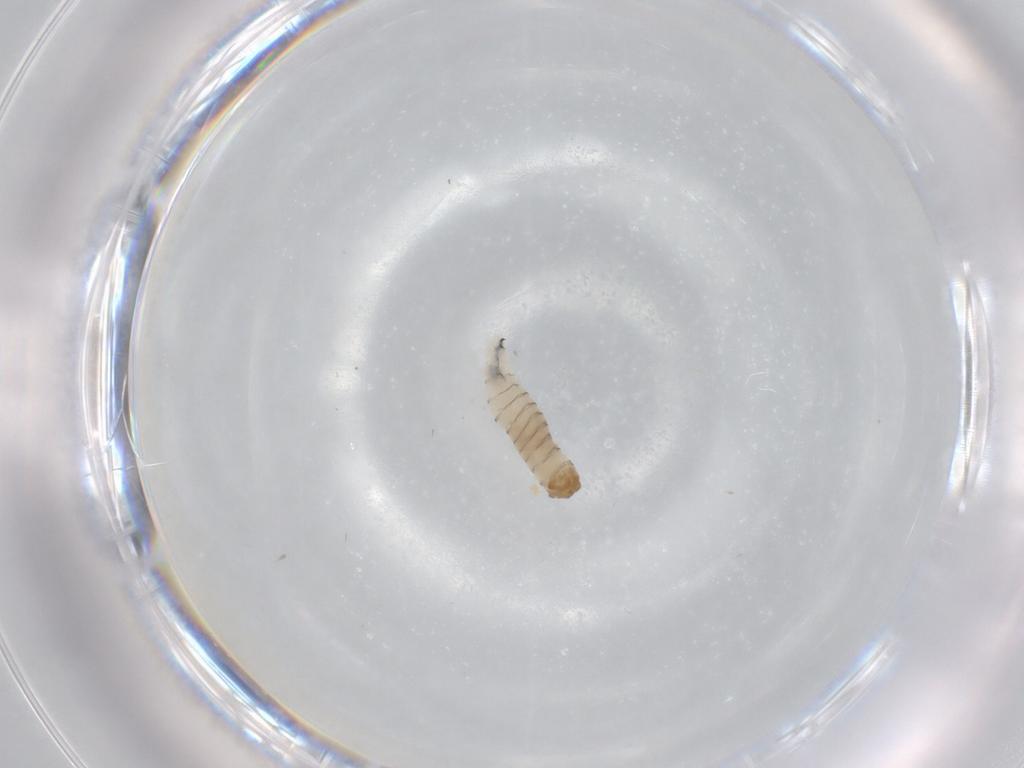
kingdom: Animalia
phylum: Arthropoda
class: Insecta
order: Diptera
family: Sarcophagidae
